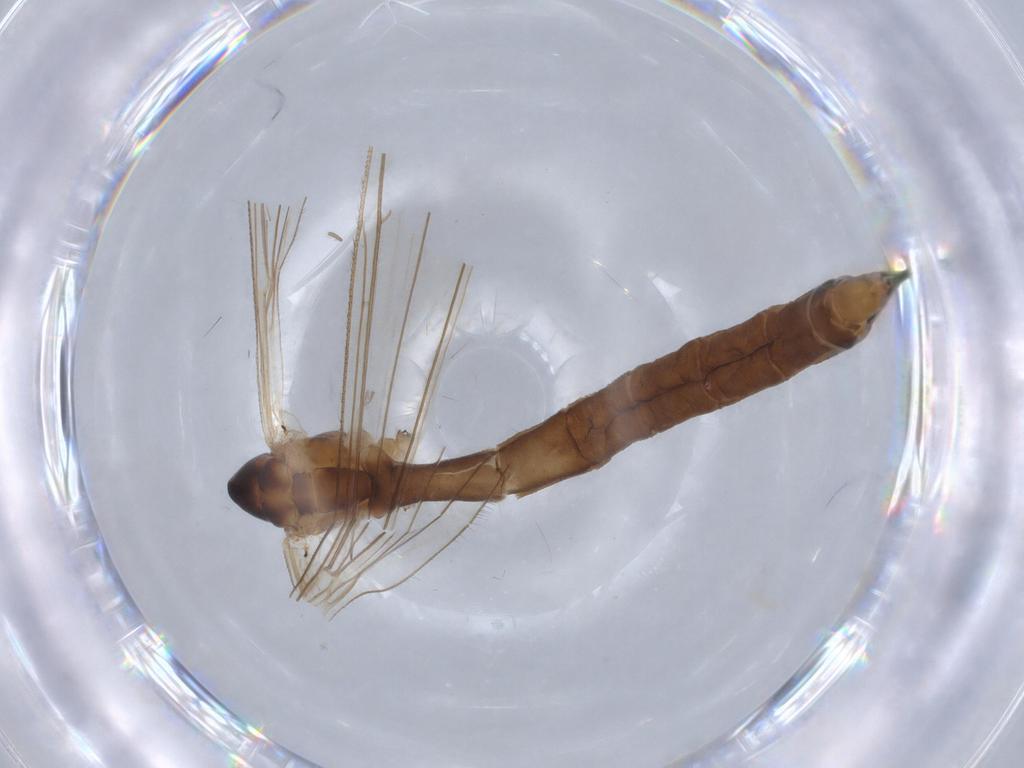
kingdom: Animalia
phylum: Arthropoda
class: Insecta
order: Diptera
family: Limoniidae
